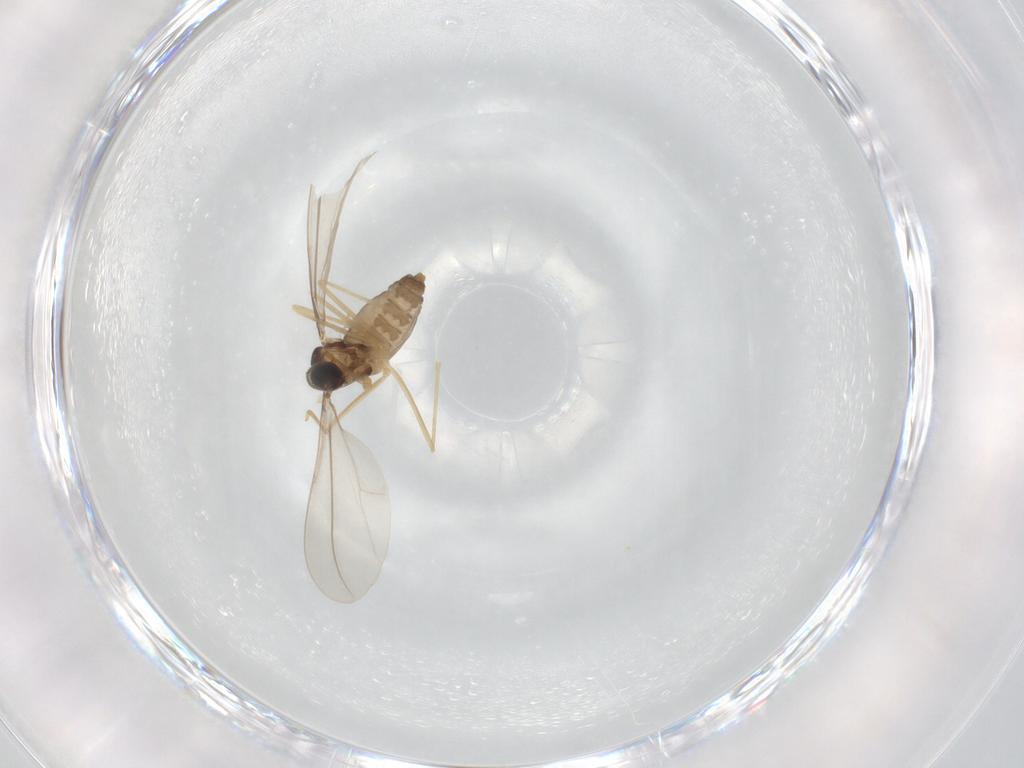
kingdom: Animalia
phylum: Arthropoda
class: Insecta
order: Diptera
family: Cecidomyiidae
